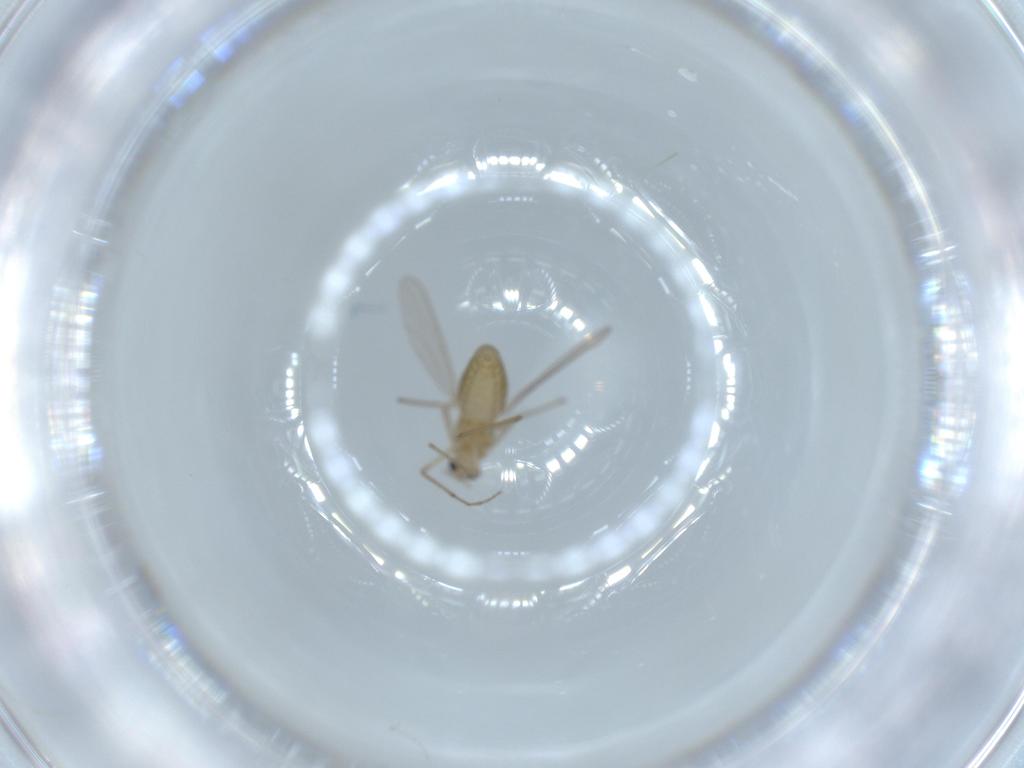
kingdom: Animalia
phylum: Arthropoda
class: Insecta
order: Diptera
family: Chironomidae
